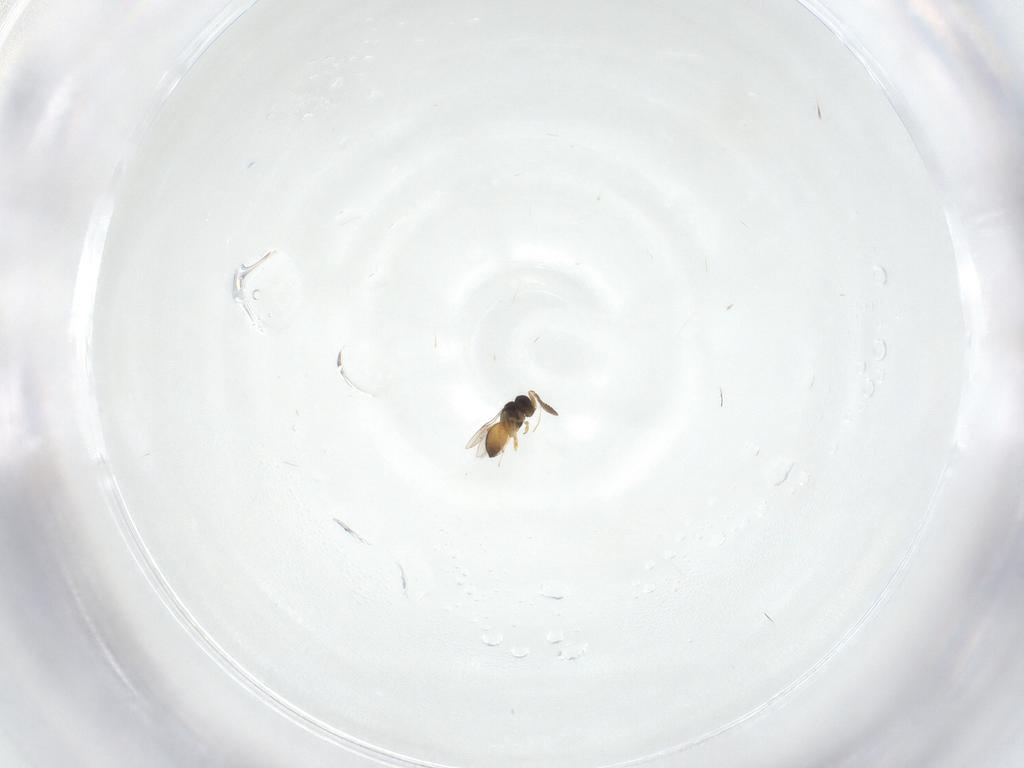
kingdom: Animalia
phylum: Arthropoda
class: Insecta
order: Hymenoptera
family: Scelionidae
